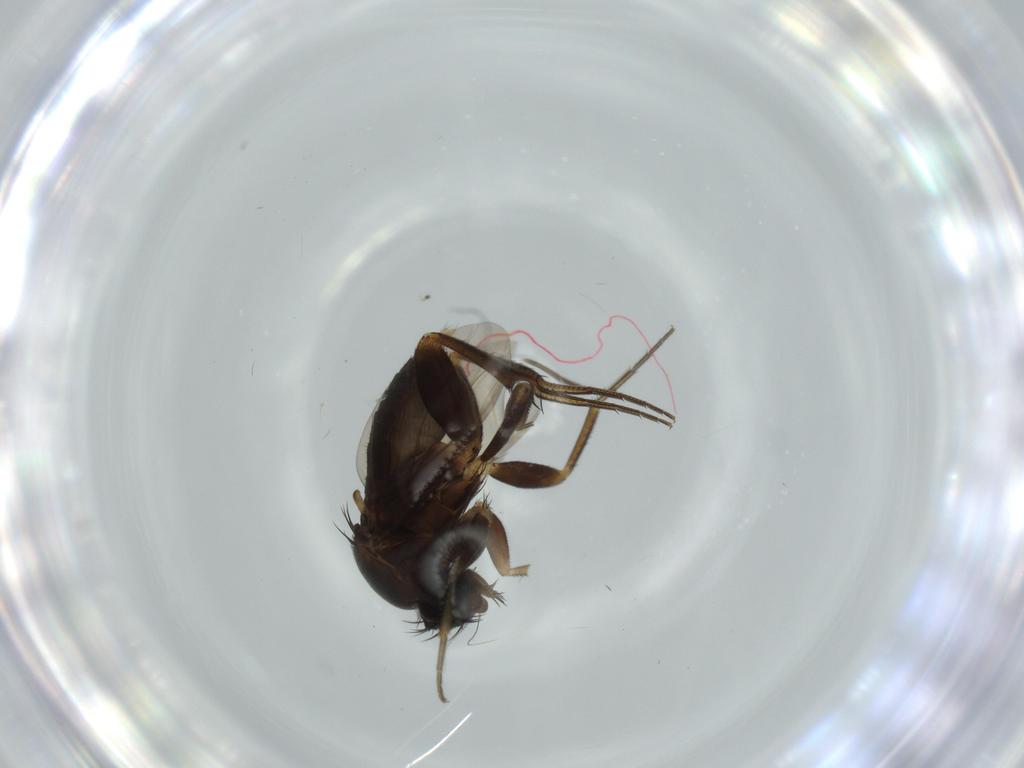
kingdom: Animalia
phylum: Arthropoda
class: Insecta
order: Diptera
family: Phoridae
